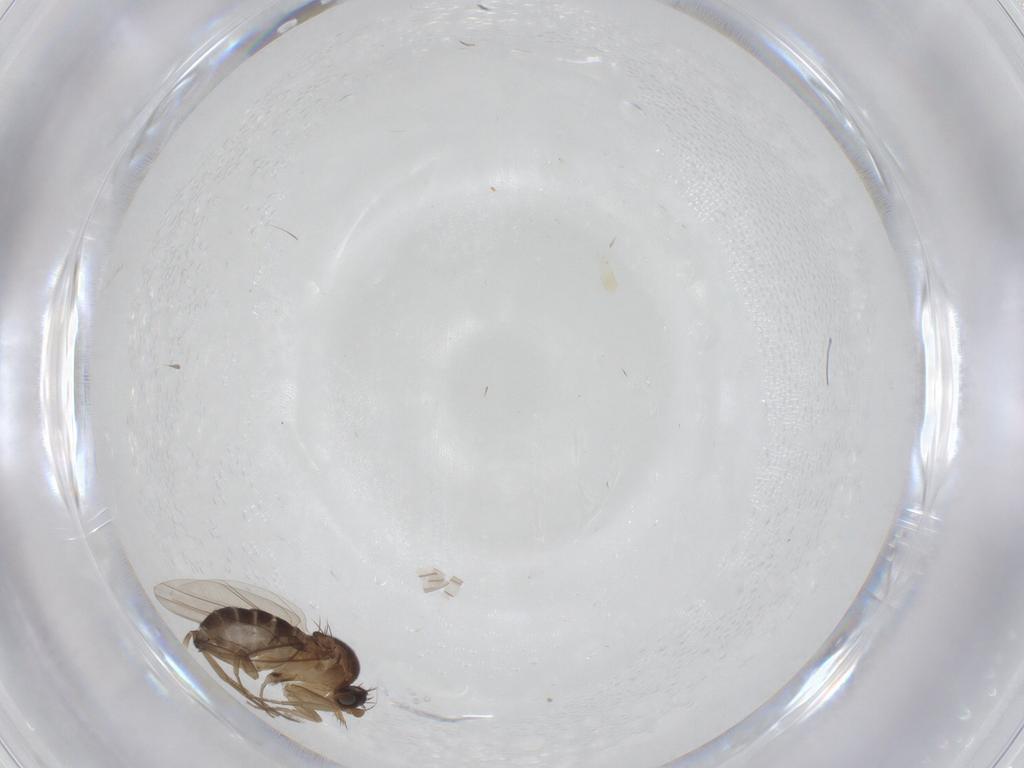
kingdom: Animalia
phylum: Arthropoda
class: Insecta
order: Diptera
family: Phoridae
